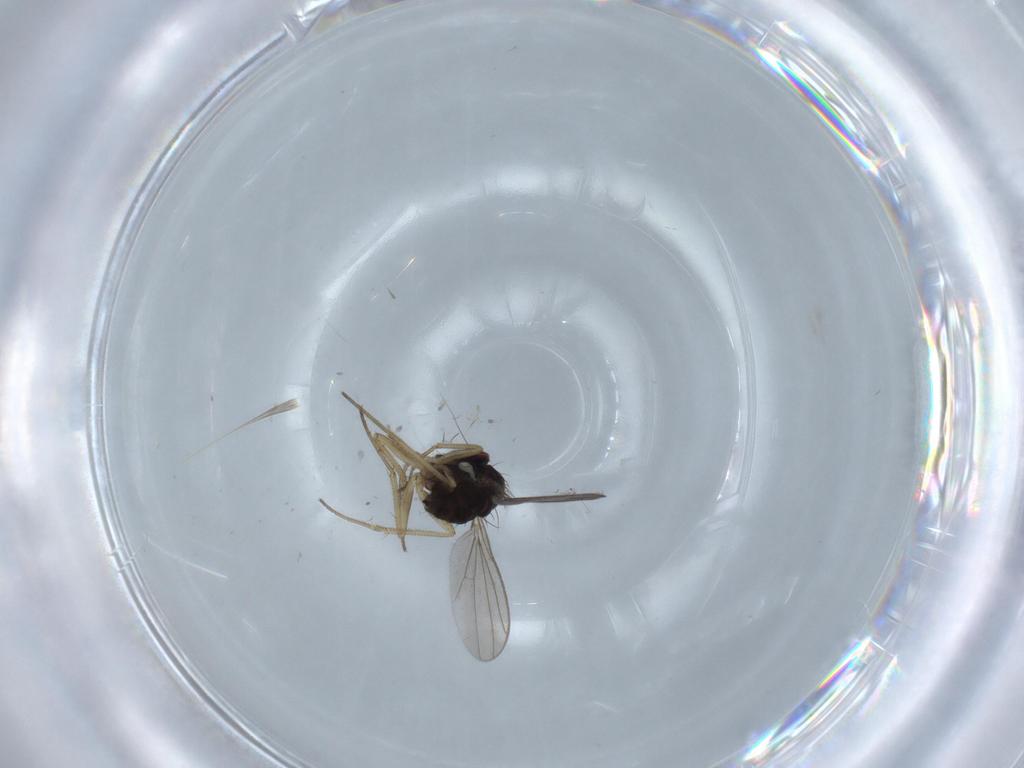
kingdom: Animalia
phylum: Arthropoda
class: Insecta
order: Diptera
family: Dolichopodidae
